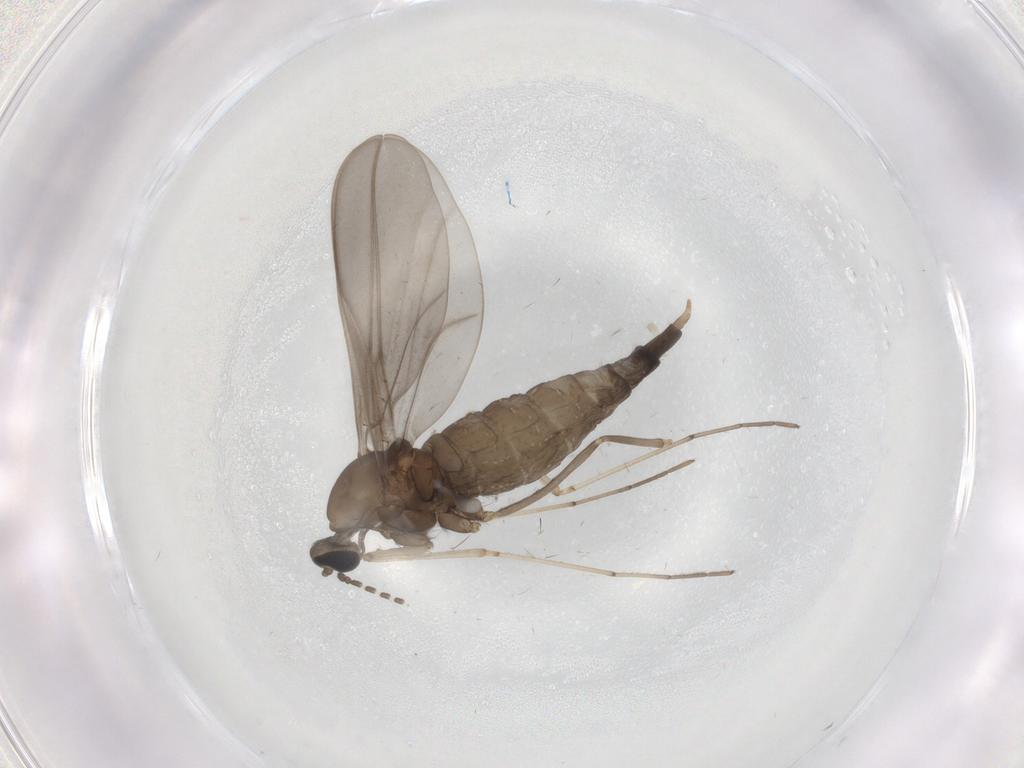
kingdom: Animalia
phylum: Arthropoda
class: Insecta
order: Diptera
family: Cecidomyiidae
